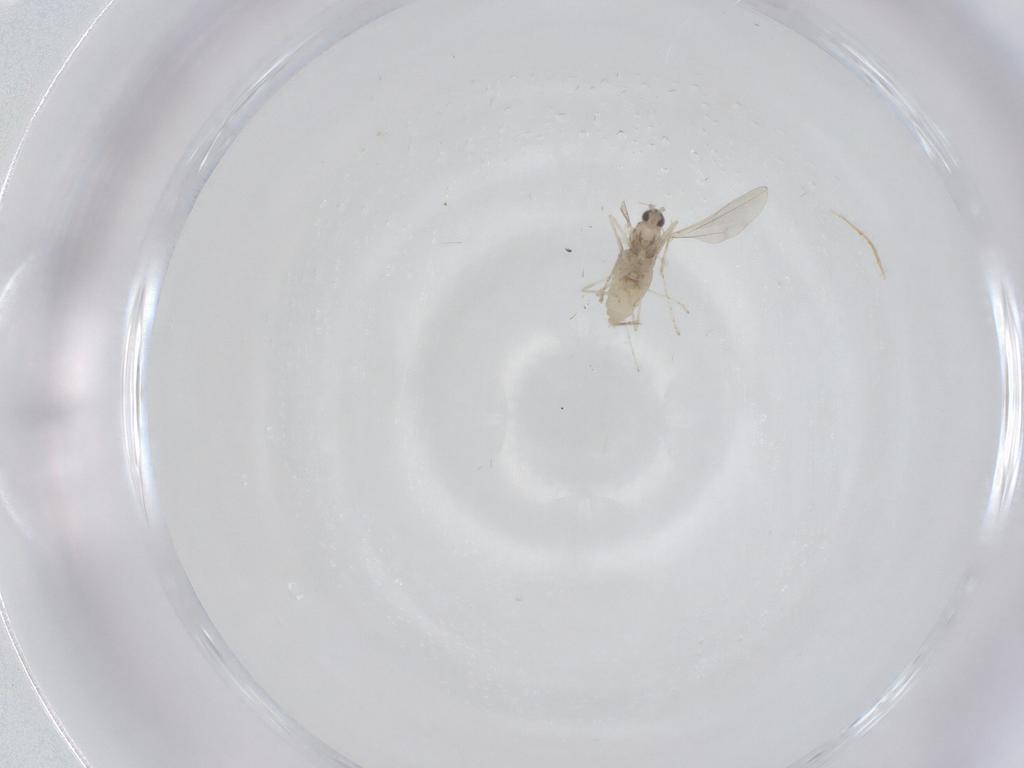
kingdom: Animalia
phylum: Arthropoda
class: Insecta
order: Diptera
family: Cecidomyiidae
